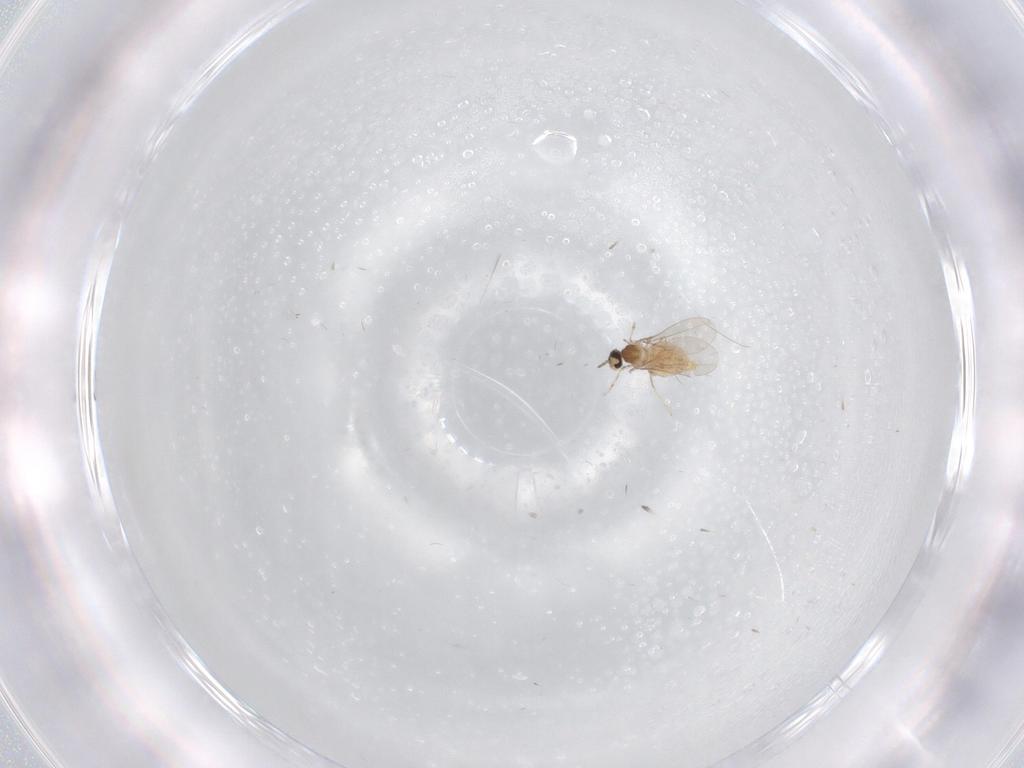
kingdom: Animalia
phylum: Arthropoda
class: Insecta
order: Diptera
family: Cecidomyiidae
